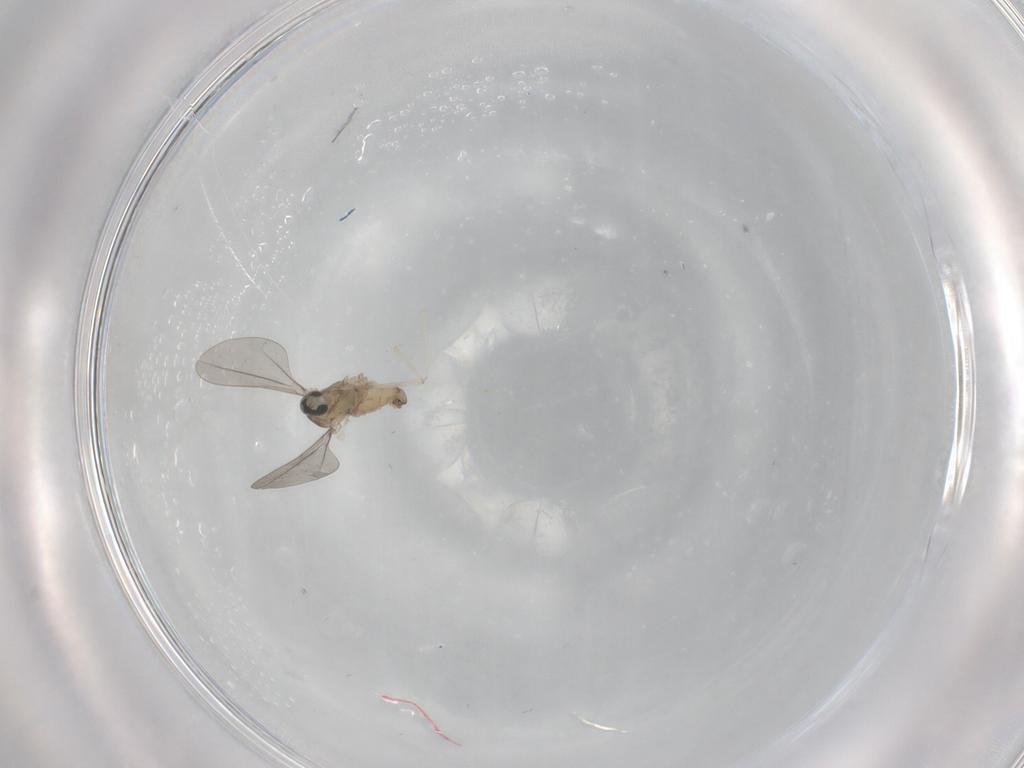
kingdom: Animalia
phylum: Arthropoda
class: Insecta
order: Diptera
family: Cecidomyiidae
